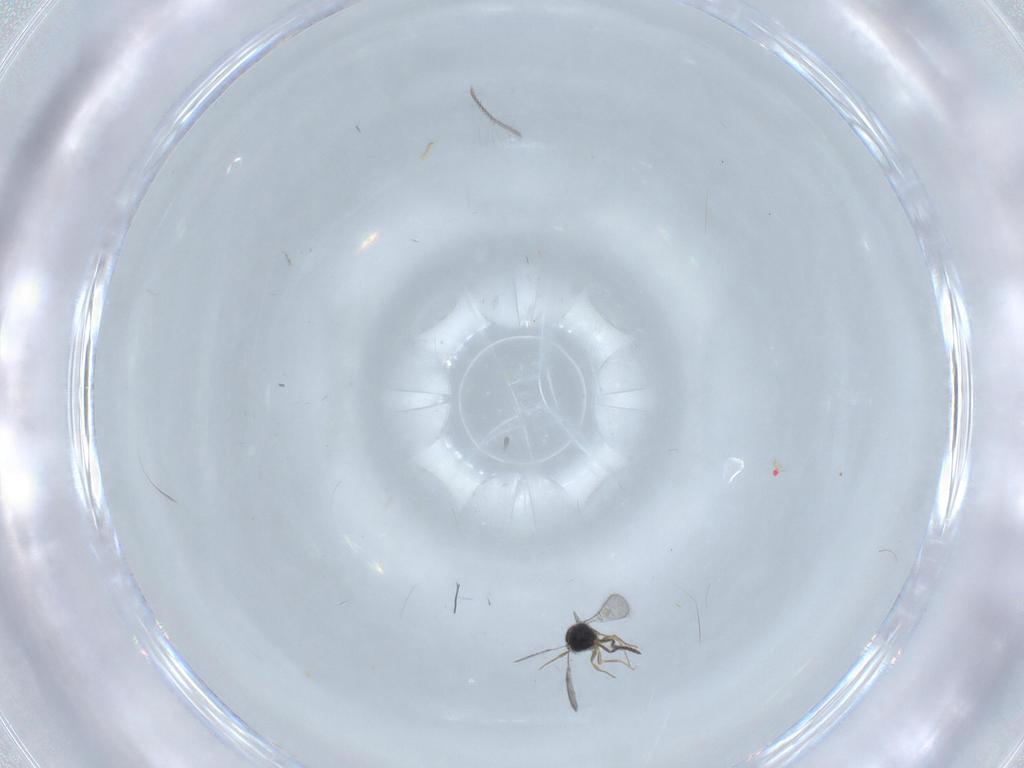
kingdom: Animalia
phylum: Arthropoda
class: Insecta
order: Hymenoptera
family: Scelionidae
